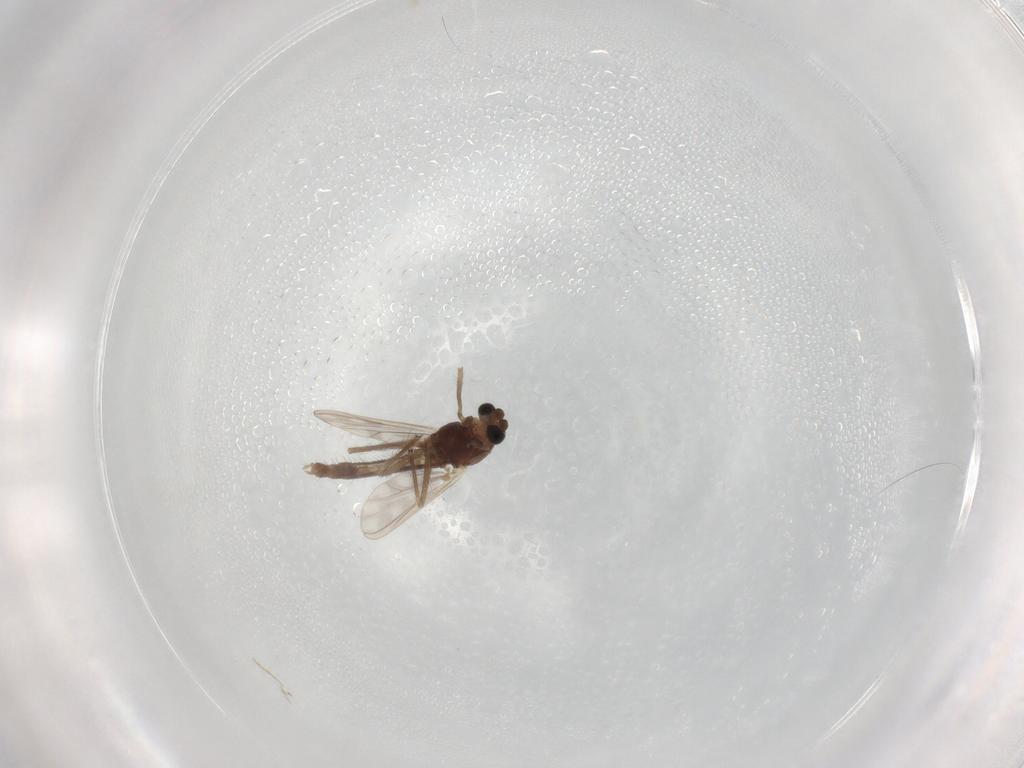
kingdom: Animalia
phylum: Arthropoda
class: Insecta
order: Diptera
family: Chironomidae
